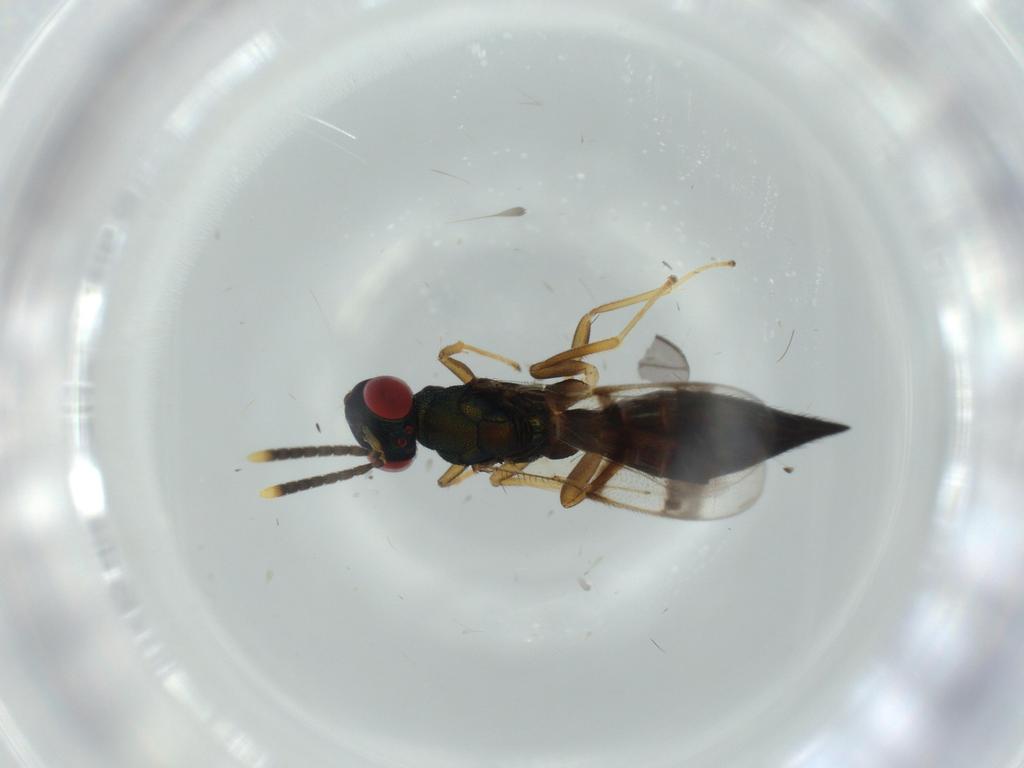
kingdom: Animalia
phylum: Arthropoda
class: Insecta
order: Hymenoptera
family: Pteromalidae
